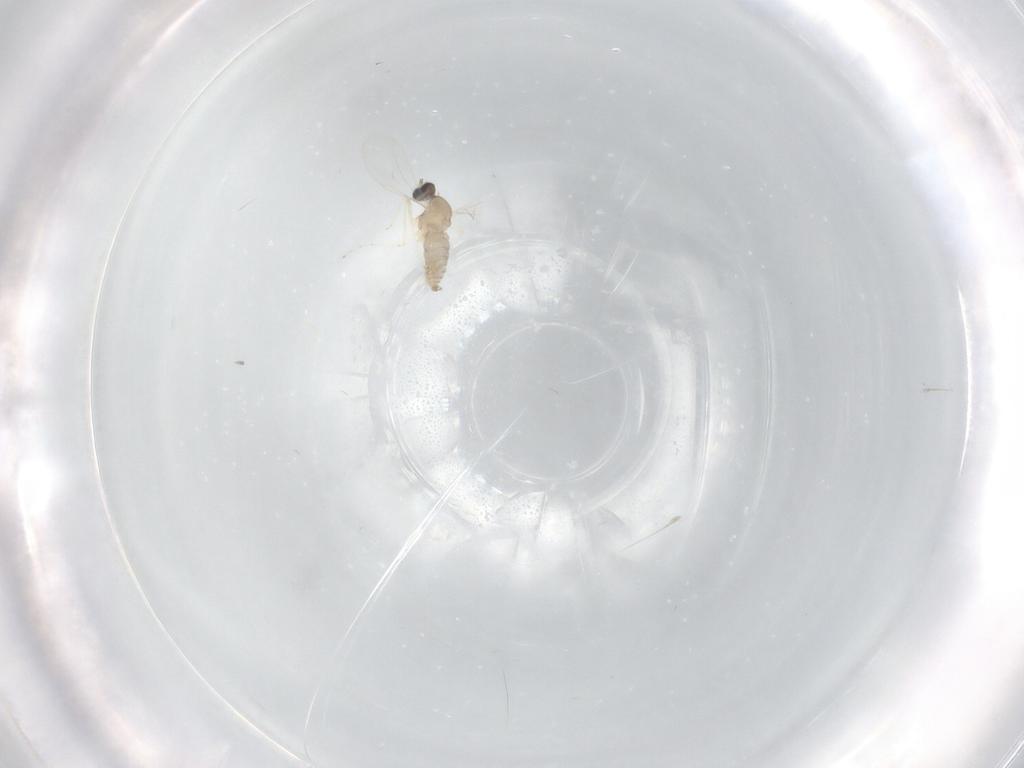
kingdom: Animalia
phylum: Arthropoda
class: Insecta
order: Diptera
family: Cecidomyiidae
